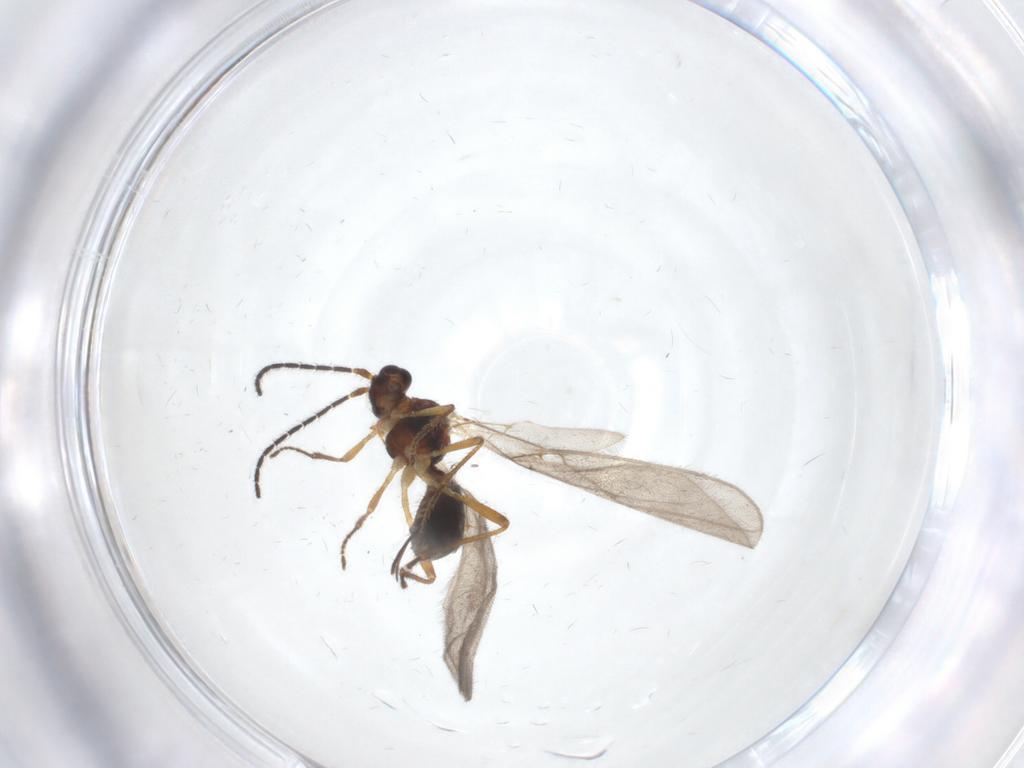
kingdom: Animalia
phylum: Arthropoda
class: Insecta
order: Hymenoptera
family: Braconidae
